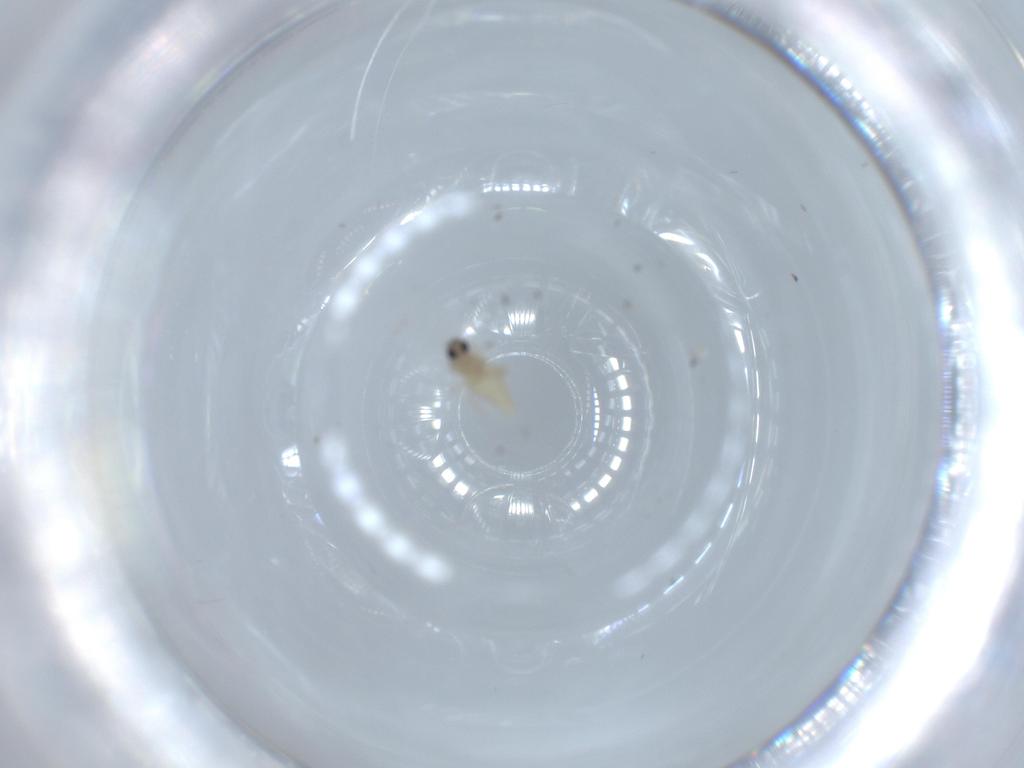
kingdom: Animalia
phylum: Arthropoda
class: Insecta
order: Diptera
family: Cecidomyiidae
